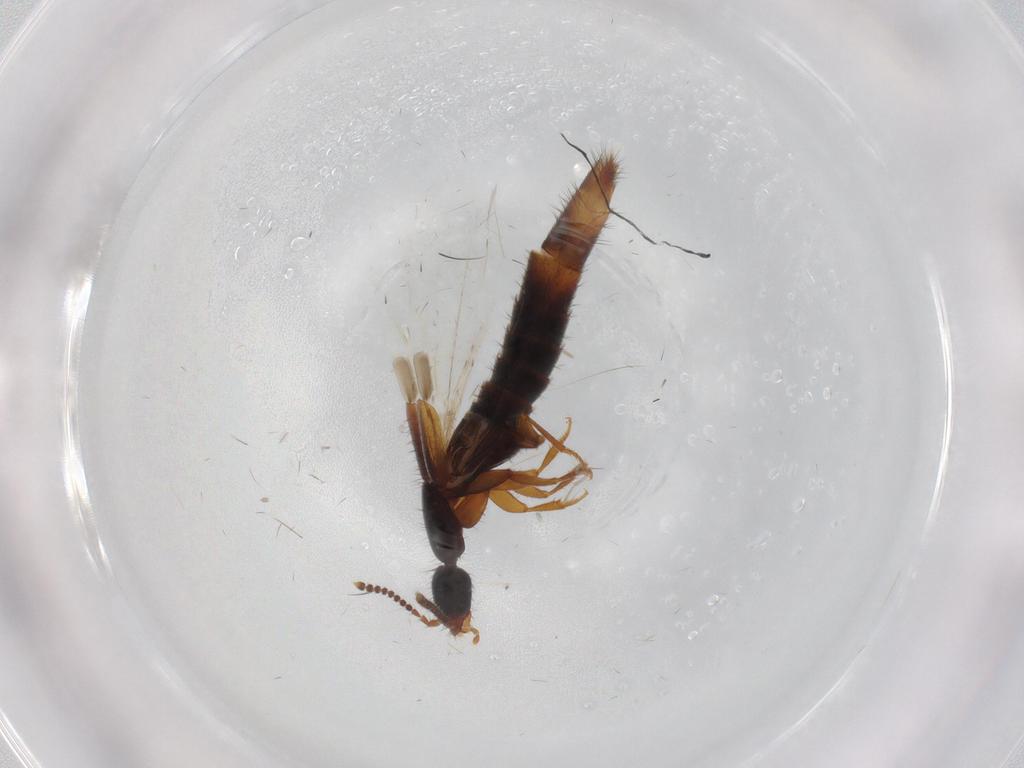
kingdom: Animalia
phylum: Arthropoda
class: Insecta
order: Coleoptera
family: Staphylinidae
